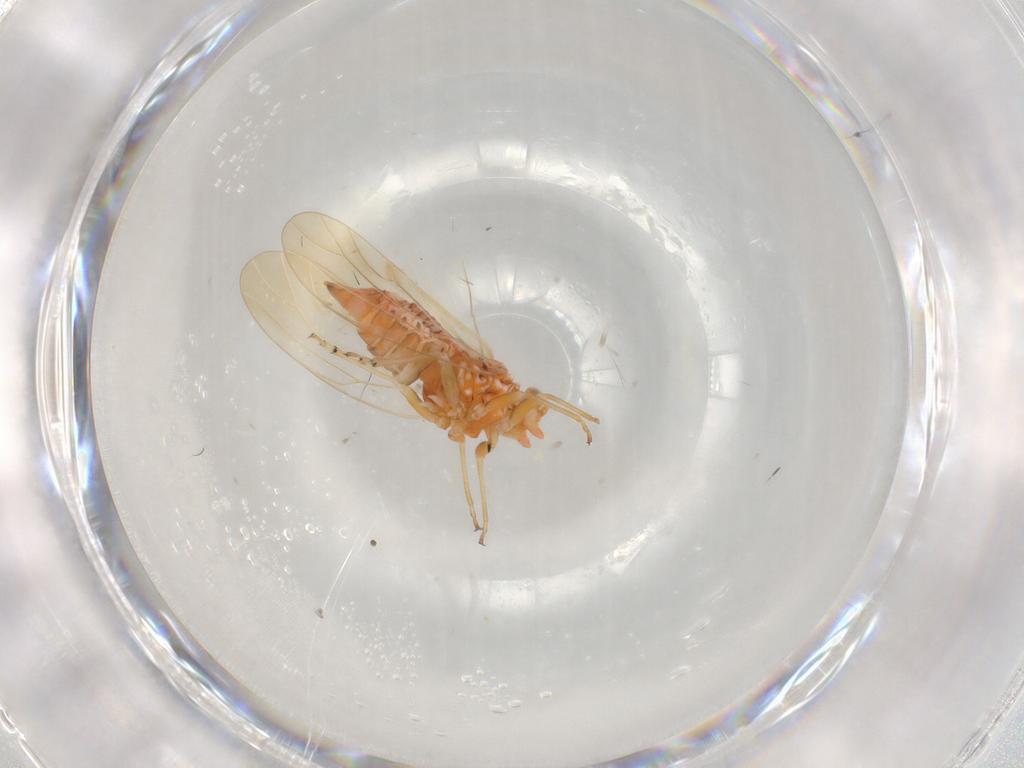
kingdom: Animalia
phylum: Arthropoda
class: Insecta
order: Hemiptera
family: Psyllidae
